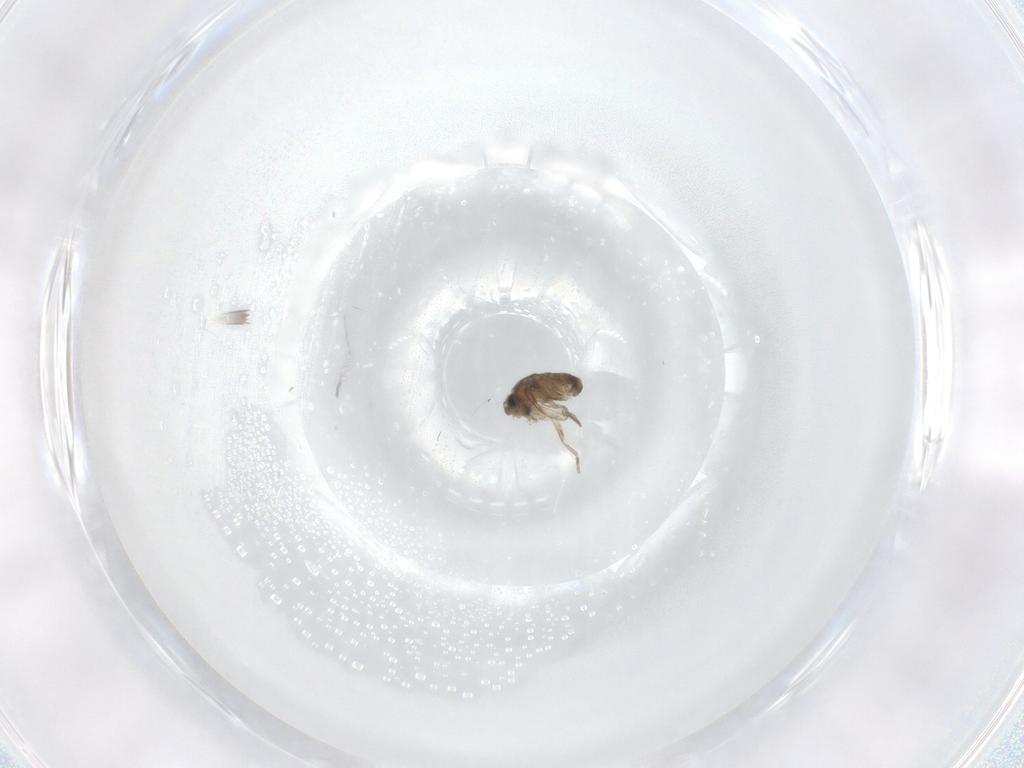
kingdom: Animalia
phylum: Arthropoda
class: Insecta
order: Diptera
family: Cecidomyiidae
